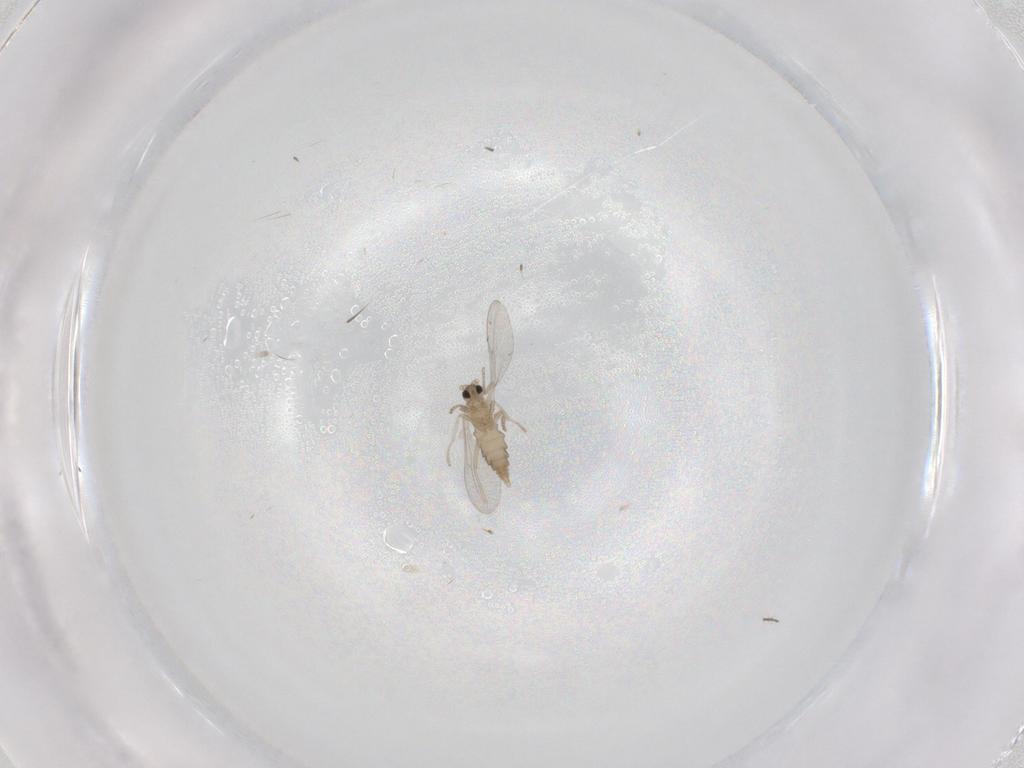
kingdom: Animalia
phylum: Arthropoda
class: Insecta
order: Diptera
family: Cecidomyiidae
